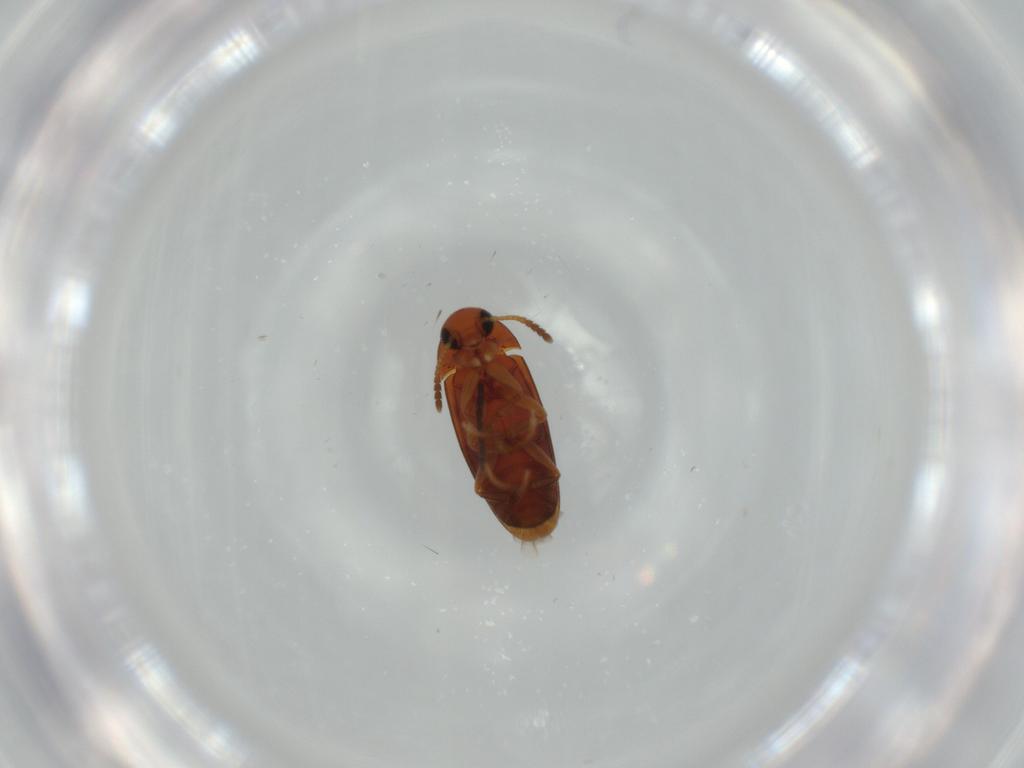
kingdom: Animalia
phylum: Arthropoda
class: Insecta
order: Coleoptera
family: Scraptiidae
